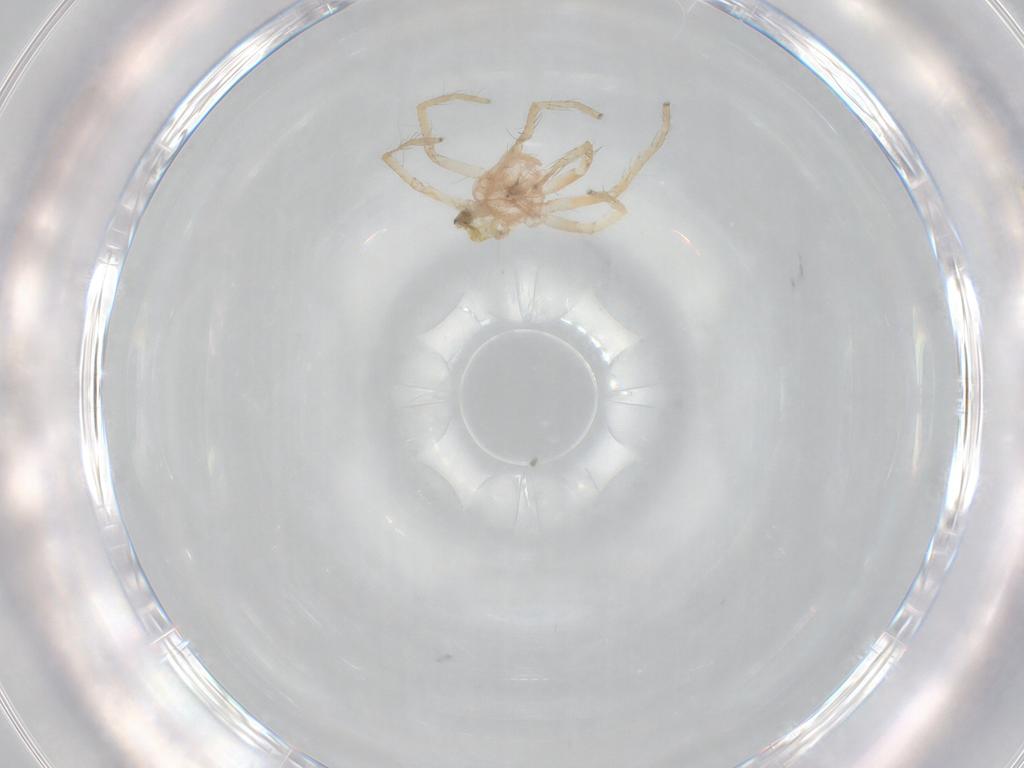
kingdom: Animalia
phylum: Arthropoda
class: Arachnida
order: Araneae
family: Pisauridae
